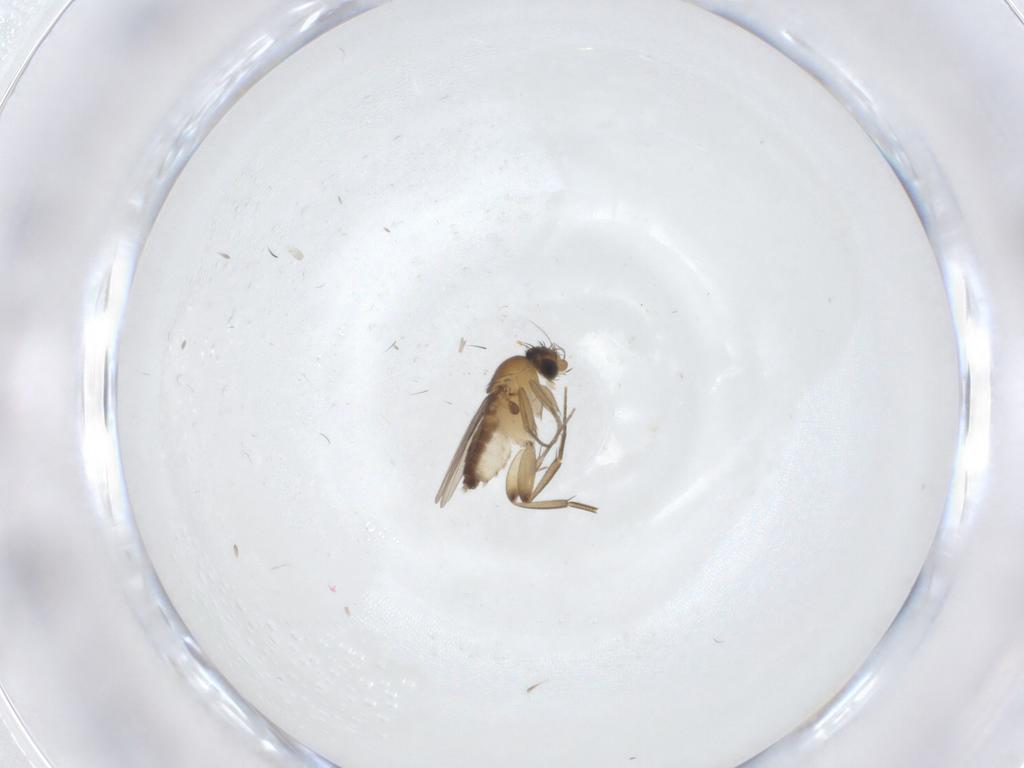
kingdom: Animalia
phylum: Arthropoda
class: Insecta
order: Diptera
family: Phoridae
